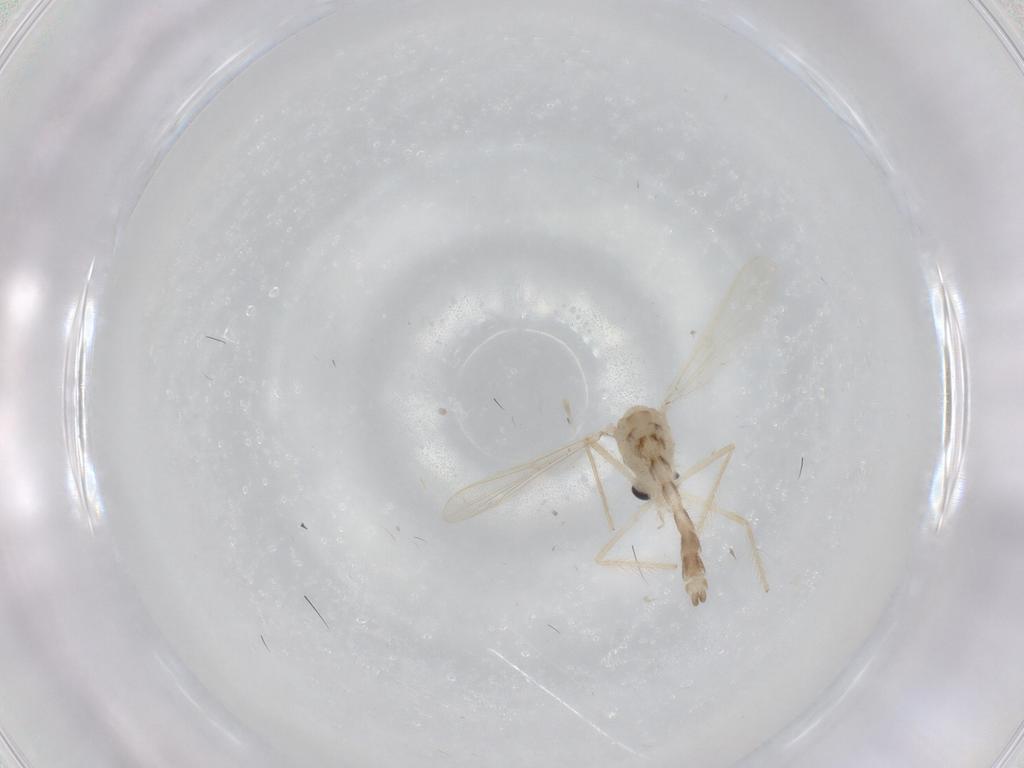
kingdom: Animalia
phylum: Arthropoda
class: Insecta
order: Diptera
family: Chironomidae
